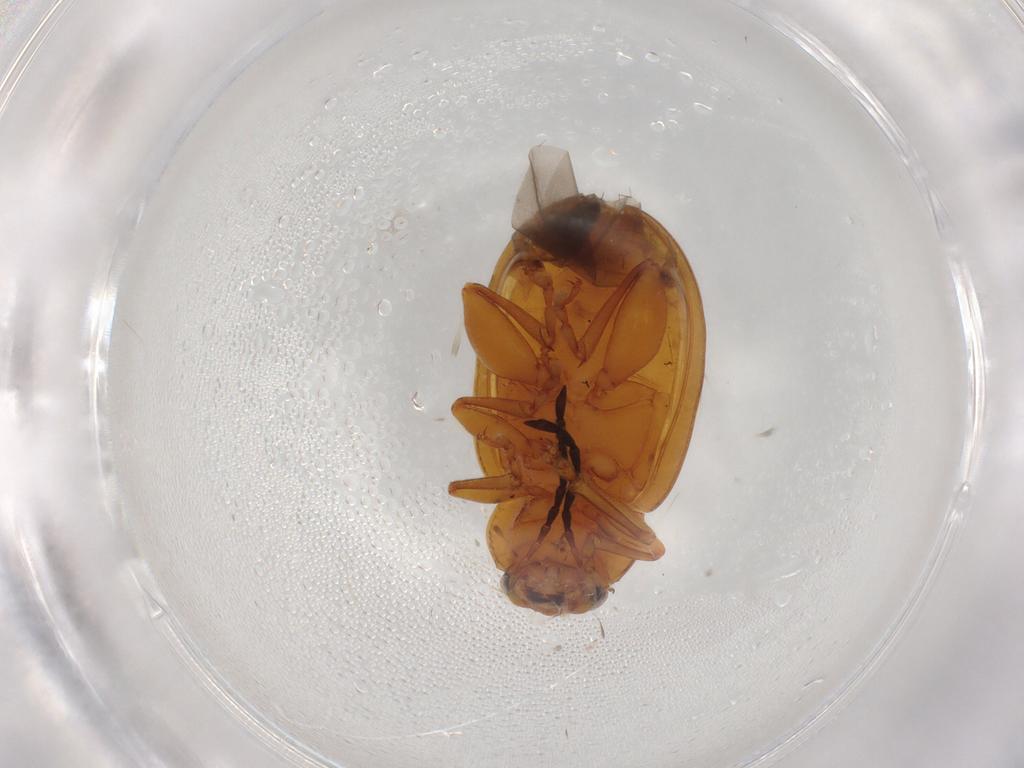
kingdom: Animalia
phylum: Arthropoda
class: Insecta
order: Coleoptera
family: Chrysomelidae
